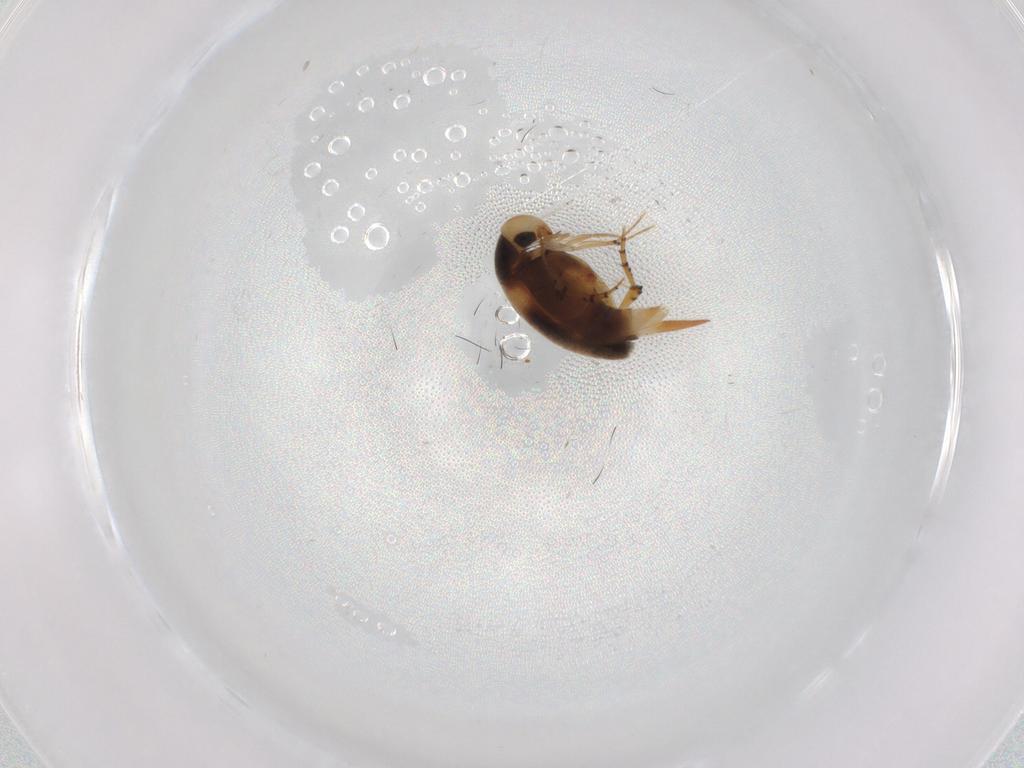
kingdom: Animalia
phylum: Arthropoda
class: Insecta
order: Coleoptera
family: Mordellidae
